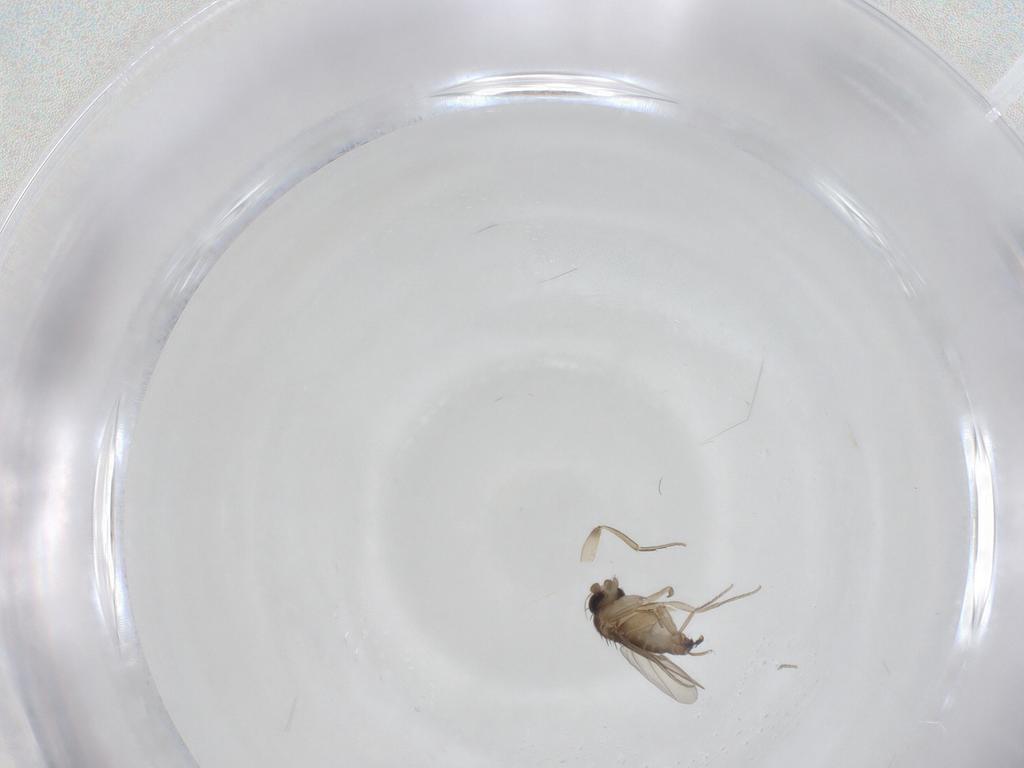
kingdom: Animalia
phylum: Arthropoda
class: Insecta
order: Diptera
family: Phoridae
